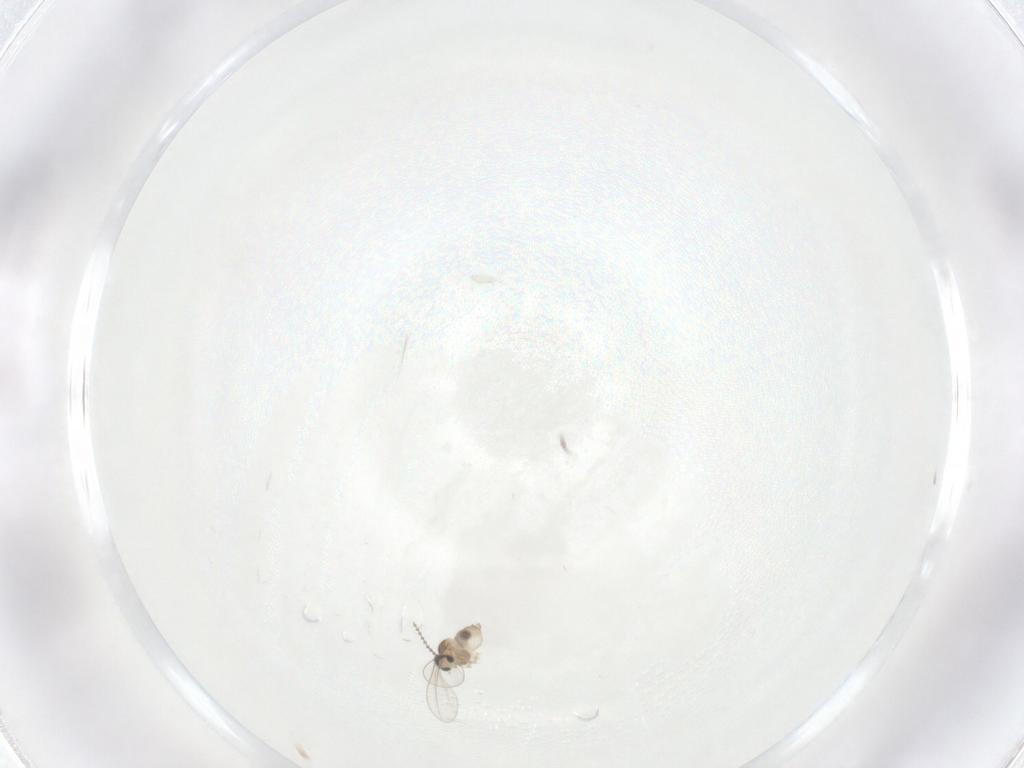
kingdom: Animalia
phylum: Arthropoda
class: Insecta
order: Diptera
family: Cecidomyiidae
